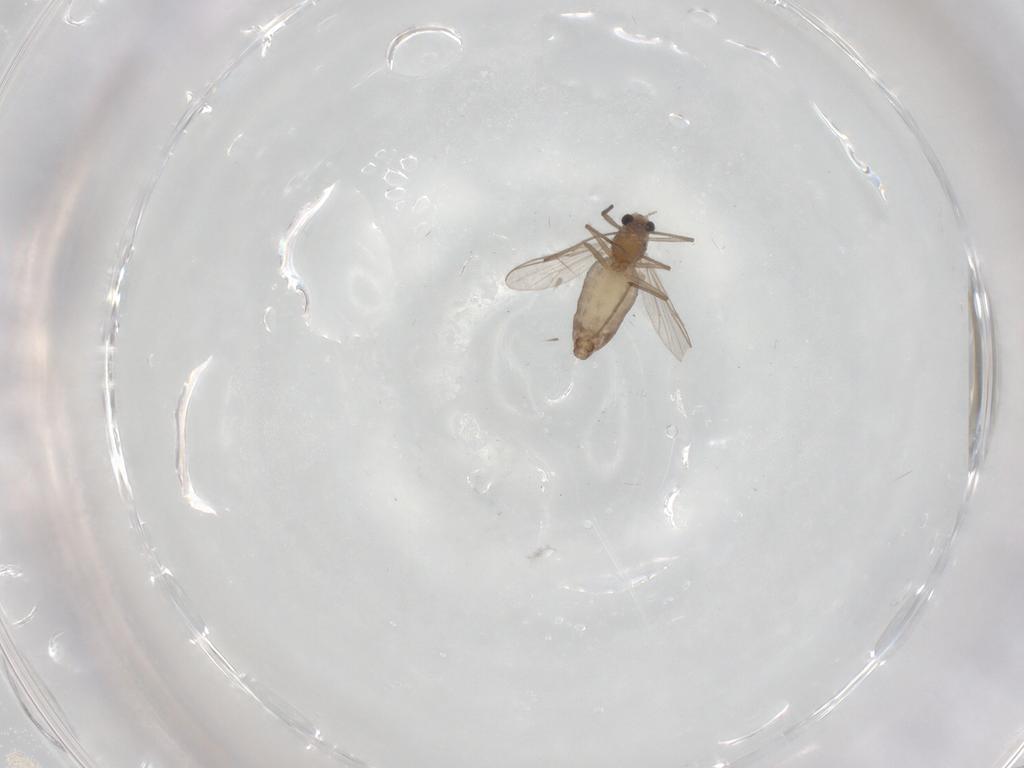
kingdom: Animalia
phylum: Arthropoda
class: Insecta
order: Diptera
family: Chironomidae
